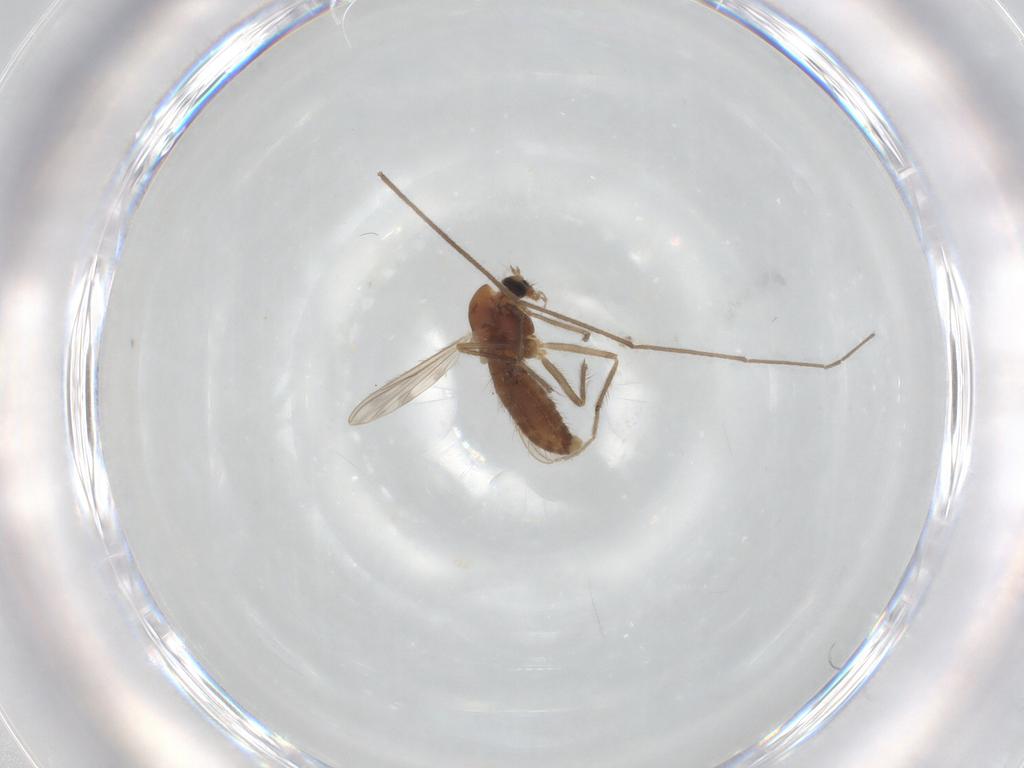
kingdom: Animalia
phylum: Arthropoda
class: Insecta
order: Diptera
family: Chironomidae
